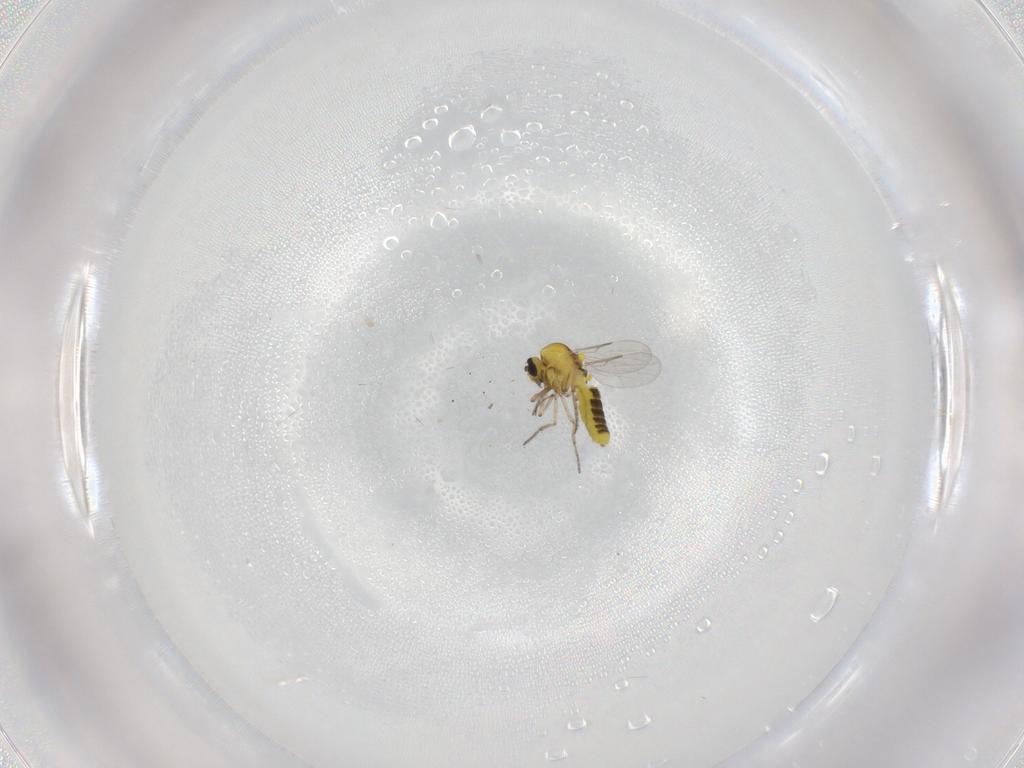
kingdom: Animalia
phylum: Arthropoda
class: Insecta
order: Diptera
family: Ceratopogonidae
